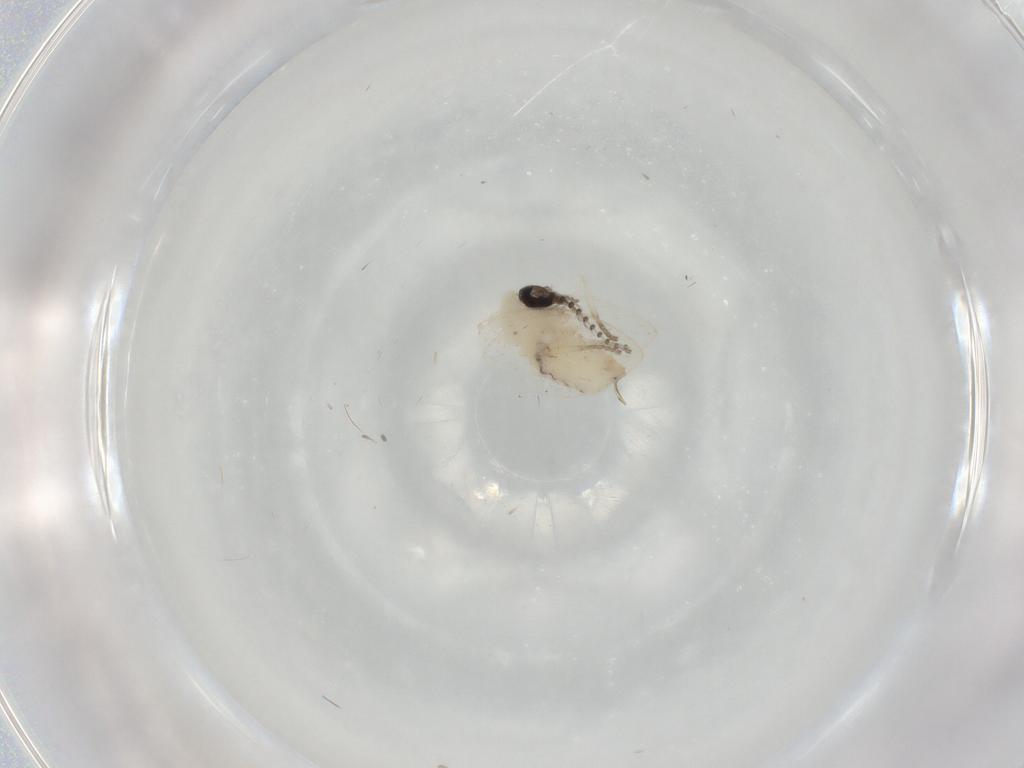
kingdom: Animalia
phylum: Arthropoda
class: Insecta
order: Diptera
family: Psychodidae
